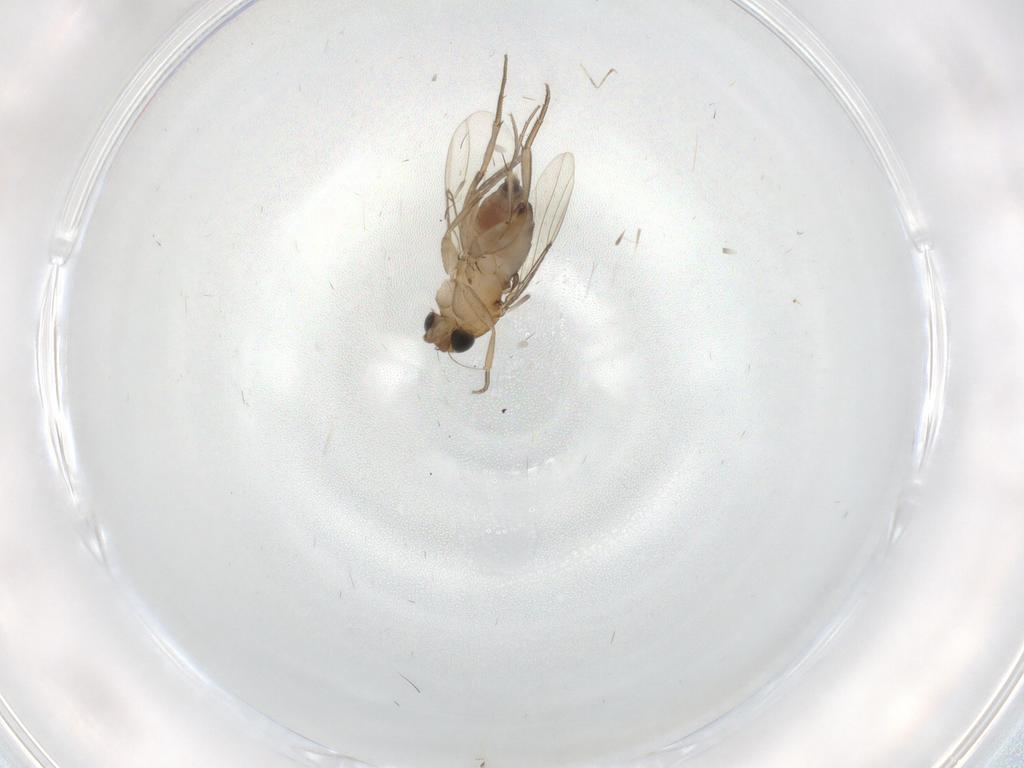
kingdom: Animalia
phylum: Arthropoda
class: Insecta
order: Diptera
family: Phoridae
